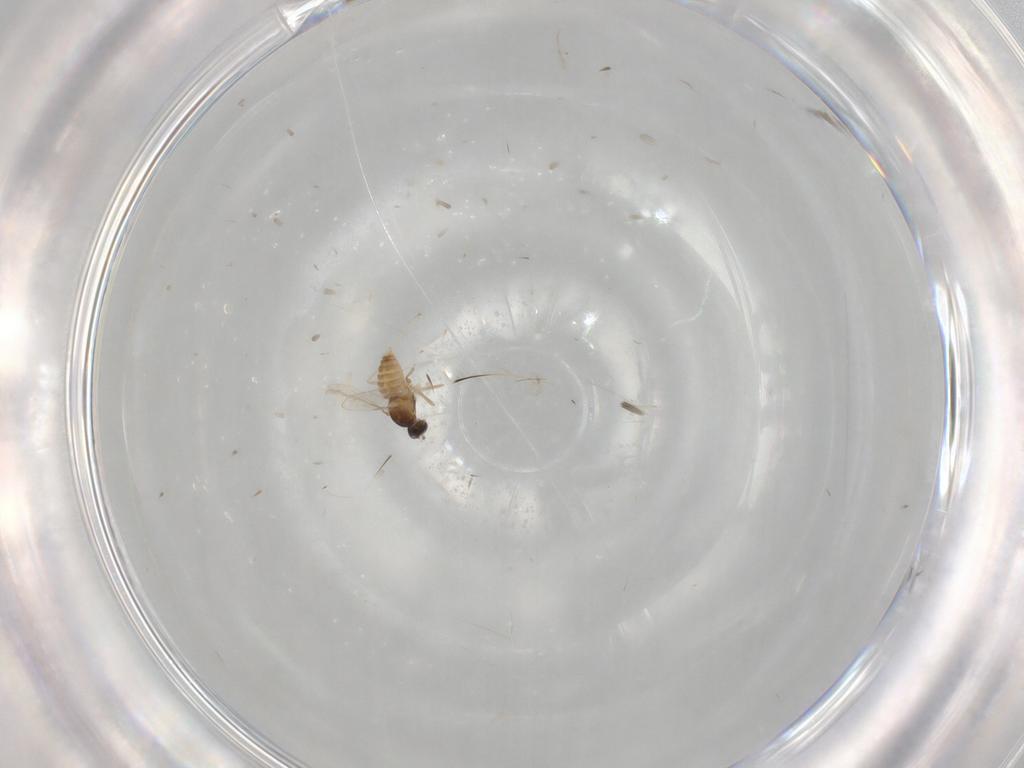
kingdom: Animalia
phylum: Arthropoda
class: Insecta
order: Diptera
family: Cecidomyiidae
